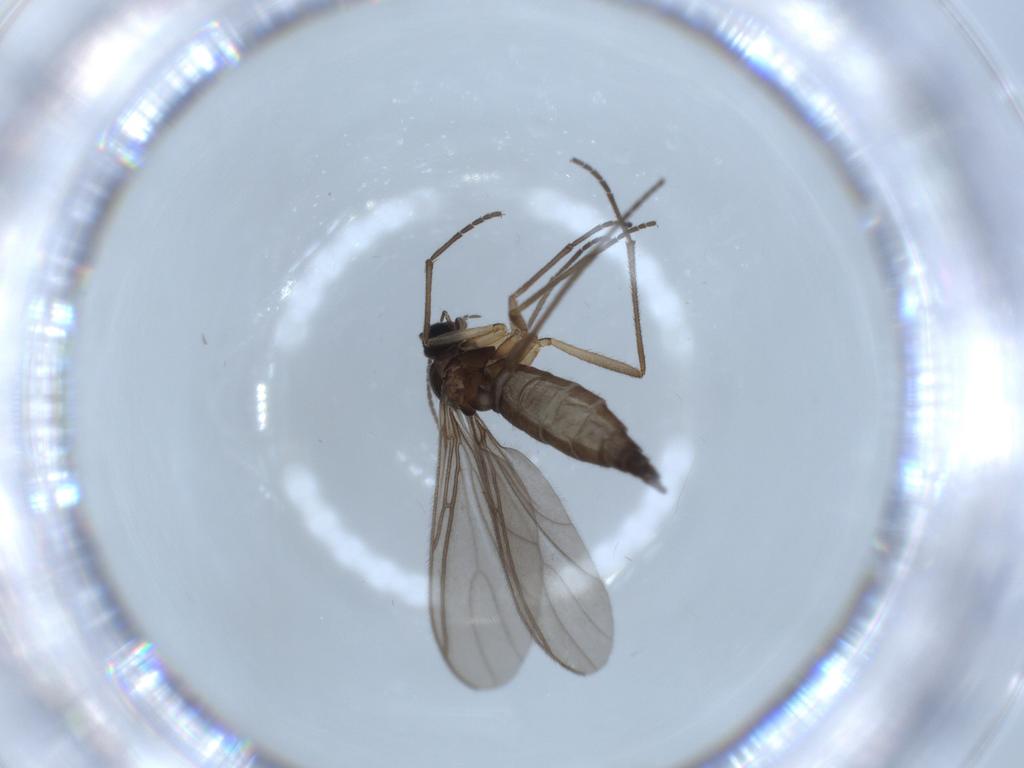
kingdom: Animalia
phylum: Arthropoda
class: Insecta
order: Diptera
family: Sciaridae
